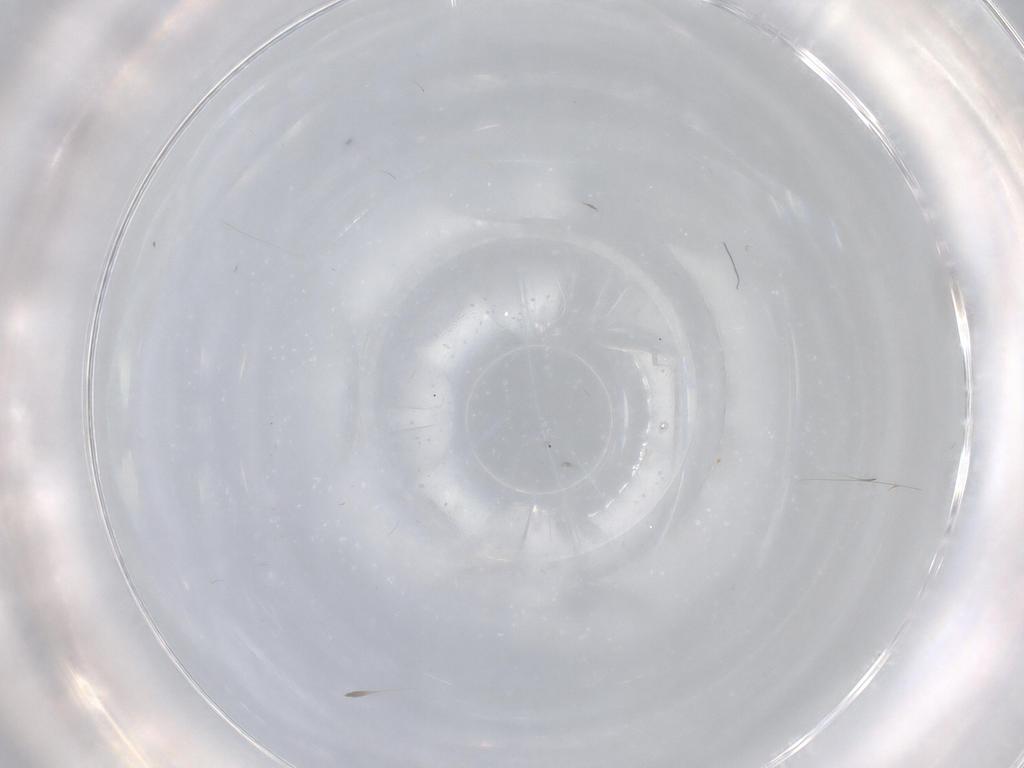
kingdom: Animalia
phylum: Arthropoda
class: Insecta
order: Diptera
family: Cecidomyiidae
